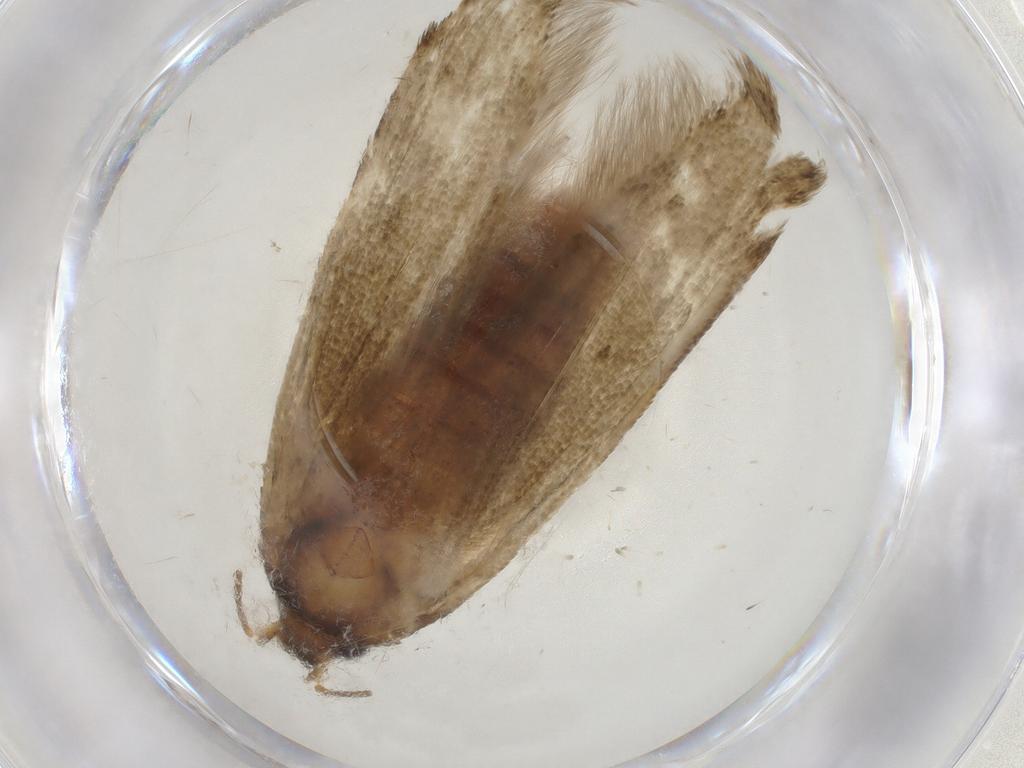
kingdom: Animalia
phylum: Arthropoda
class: Insecta
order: Lepidoptera
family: Blastobasidae
